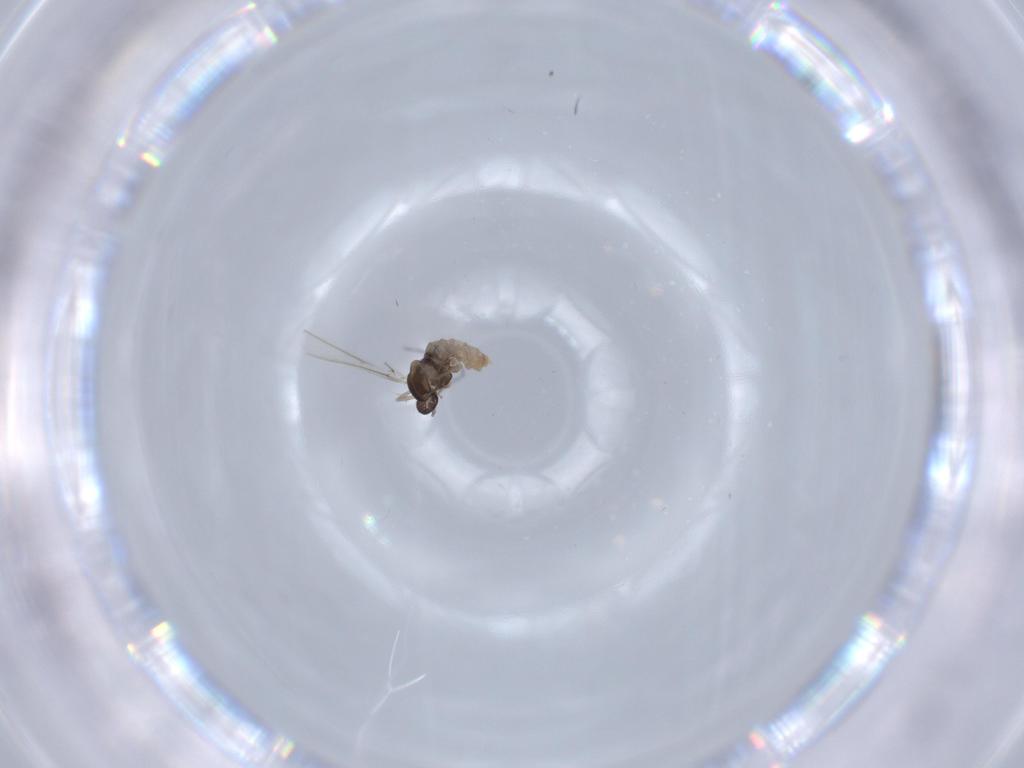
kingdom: Animalia
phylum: Arthropoda
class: Insecta
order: Diptera
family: Cecidomyiidae
